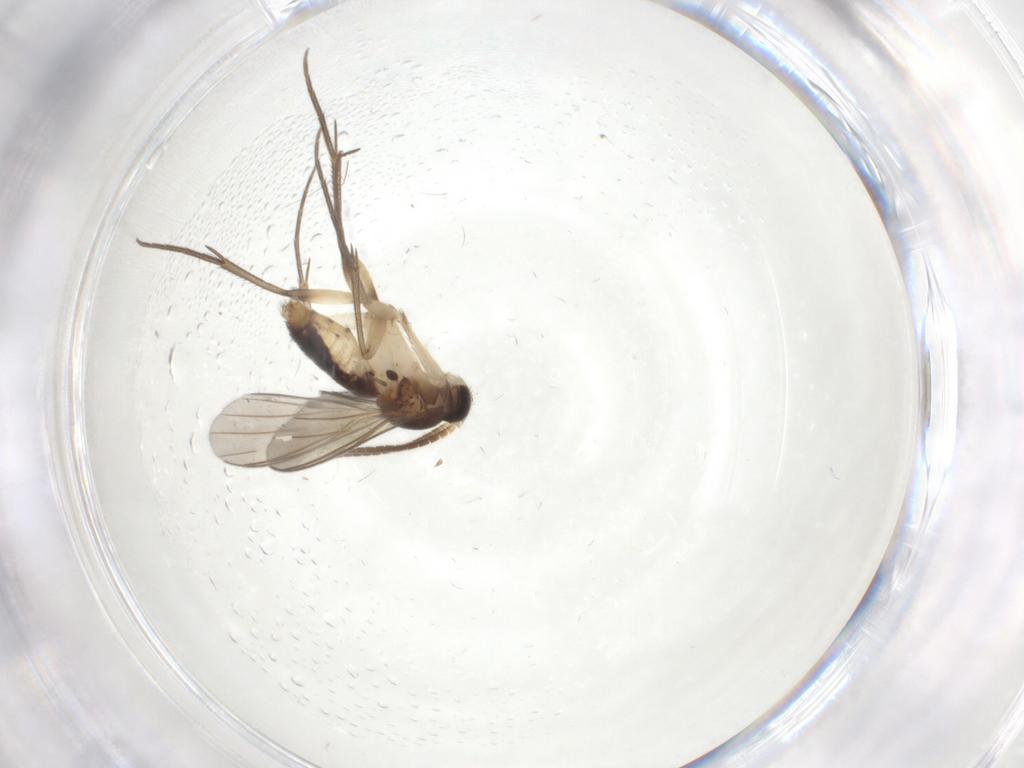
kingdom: Animalia
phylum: Arthropoda
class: Insecta
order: Diptera
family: Mycetophilidae
